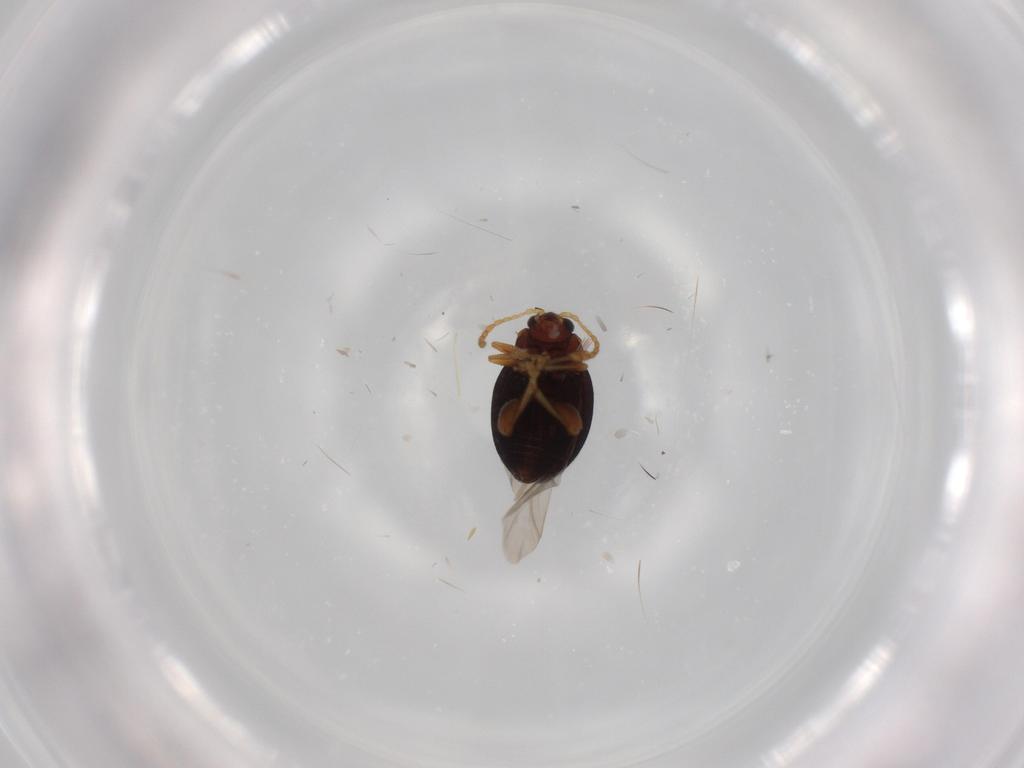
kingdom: Animalia
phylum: Arthropoda
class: Insecta
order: Coleoptera
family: Chrysomelidae
